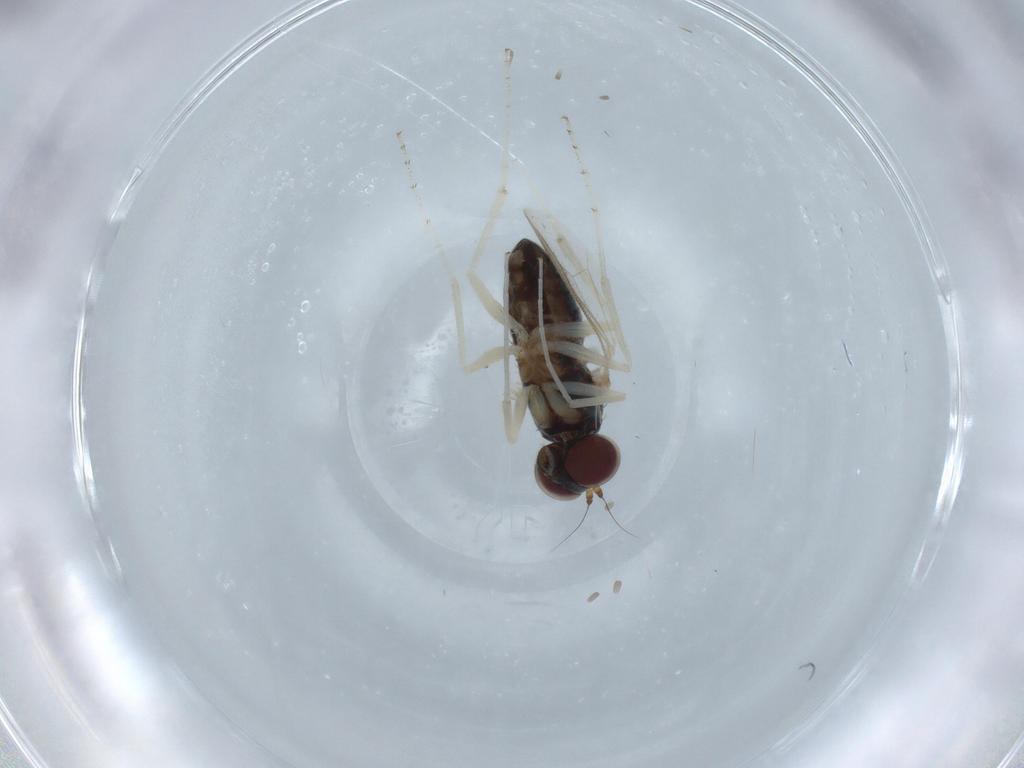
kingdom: Animalia
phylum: Arthropoda
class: Insecta
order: Diptera
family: Dolichopodidae
